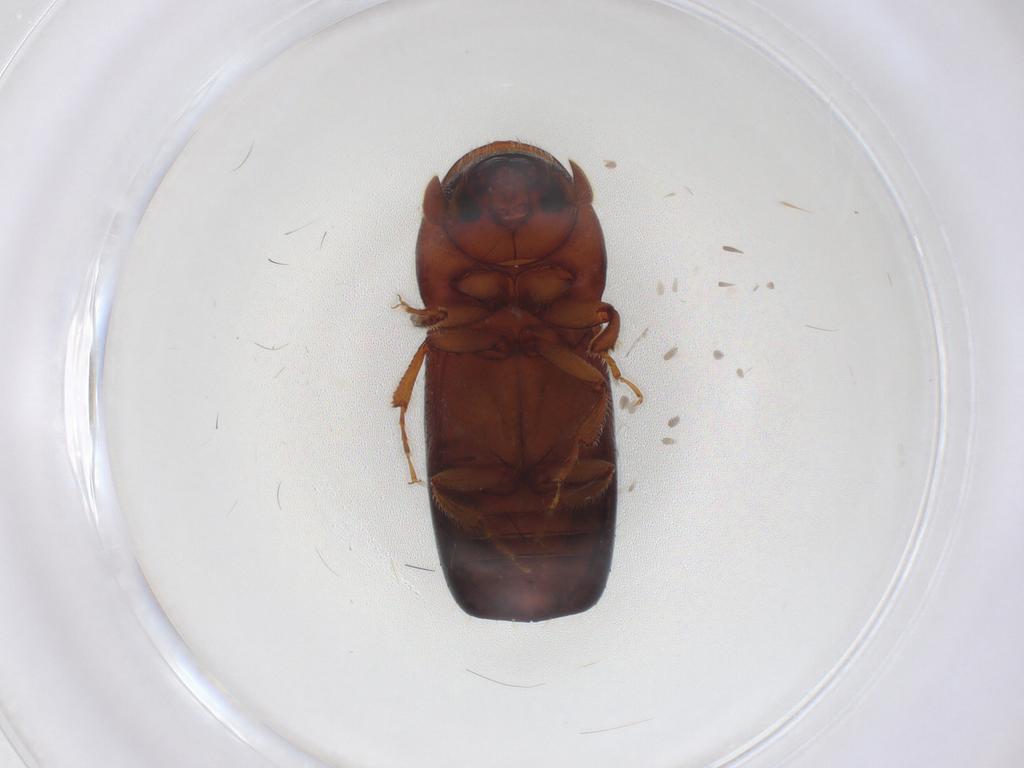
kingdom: Animalia
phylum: Arthropoda
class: Insecta
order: Coleoptera
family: Curculionidae
